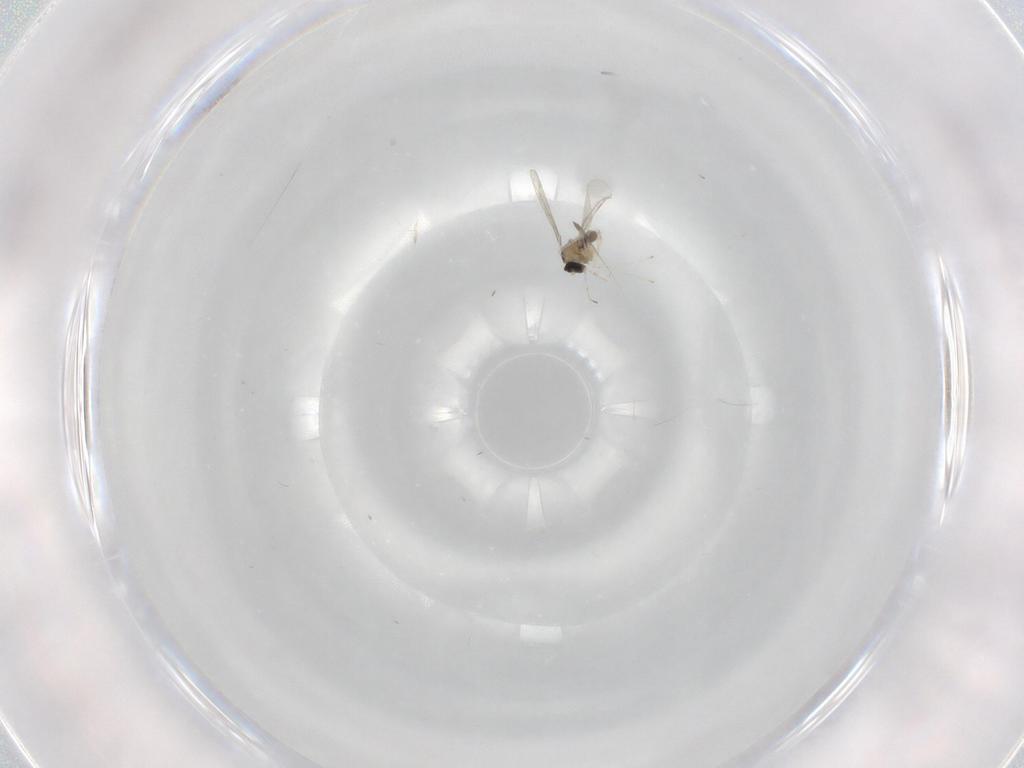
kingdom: Animalia
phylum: Arthropoda
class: Insecta
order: Diptera
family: Cecidomyiidae
